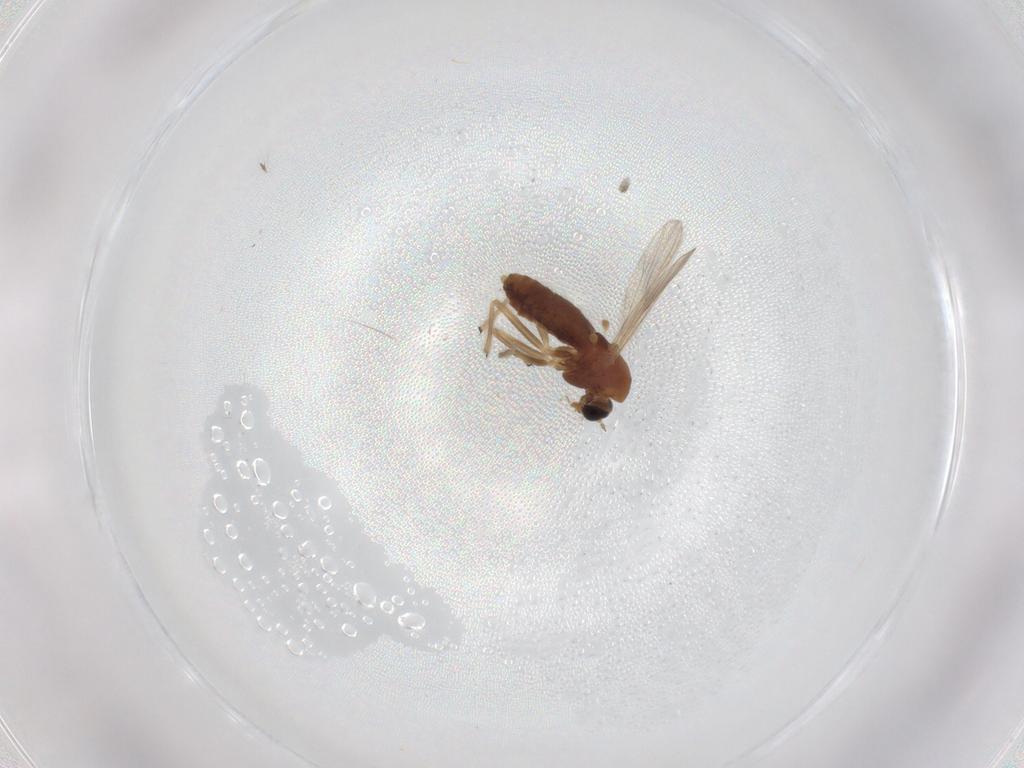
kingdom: Animalia
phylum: Arthropoda
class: Insecta
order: Diptera
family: Chironomidae
